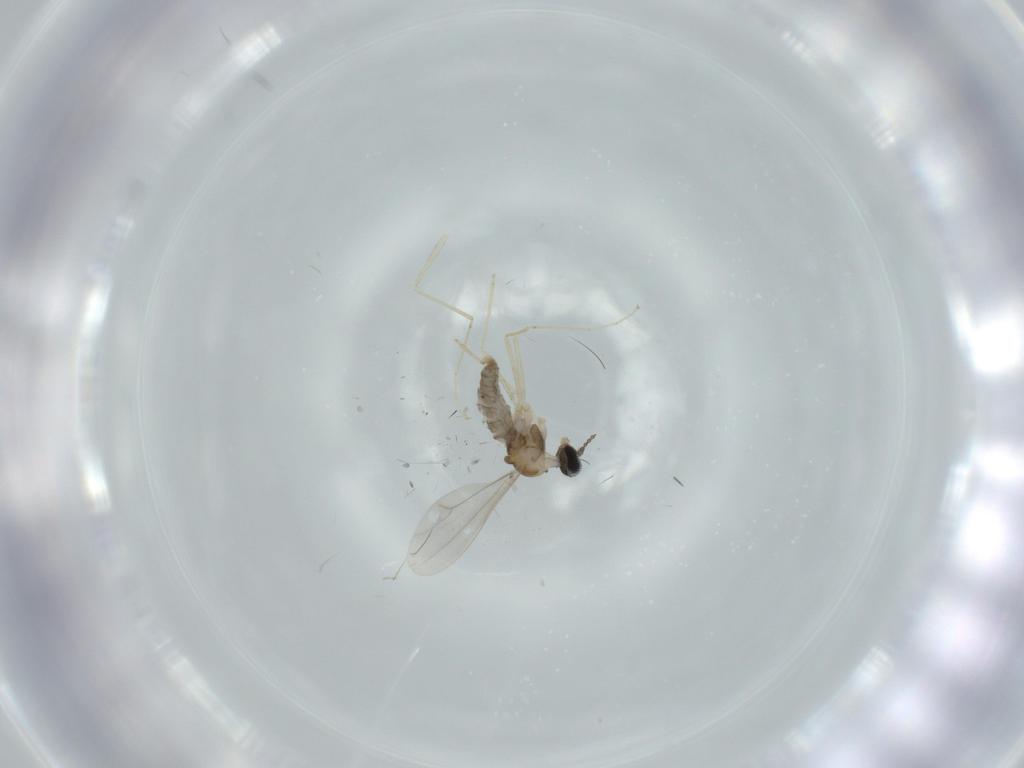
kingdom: Animalia
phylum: Arthropoda
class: Insecta
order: Diptera
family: Cecidomyiidae
